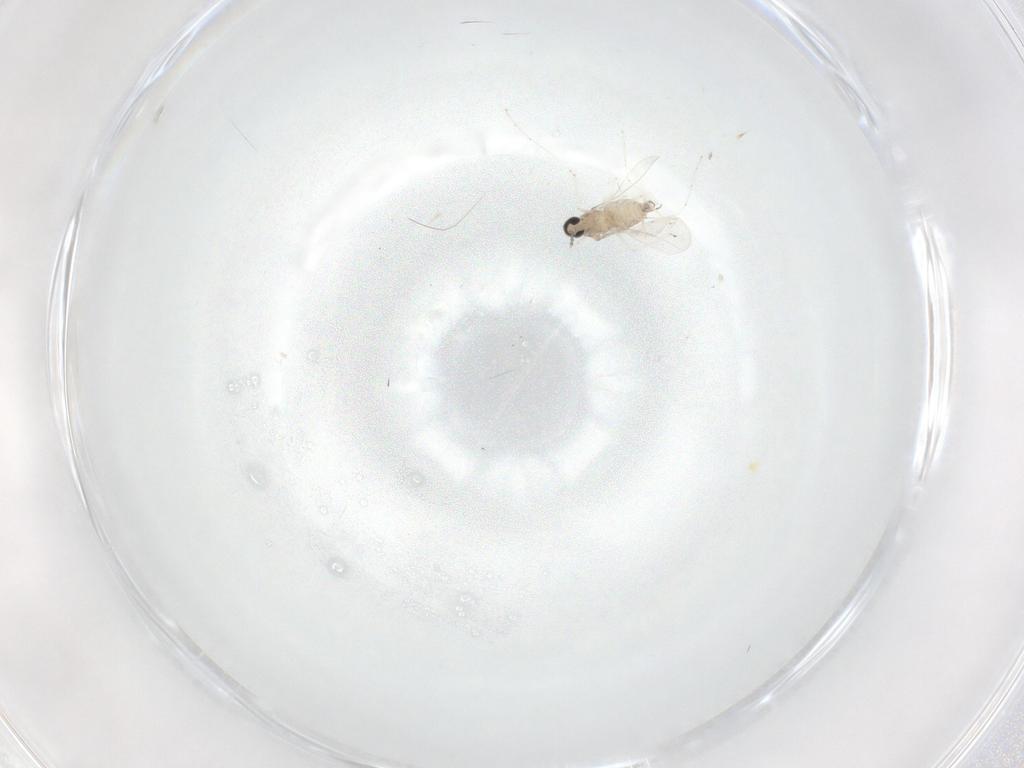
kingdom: Animalia
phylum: Arthropoda
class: Insecta
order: Diptera
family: Cecidomyiidae
